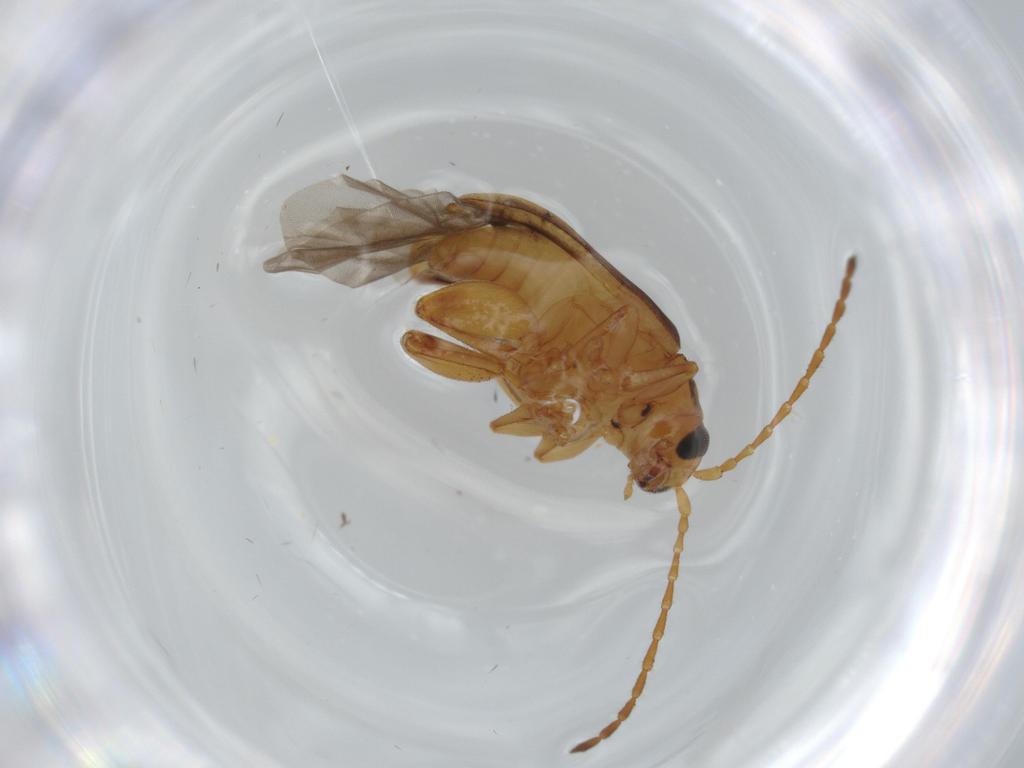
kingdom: Animalia
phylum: Arthropoda
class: Insecta
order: Coleoptera
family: Chrysomelidae
